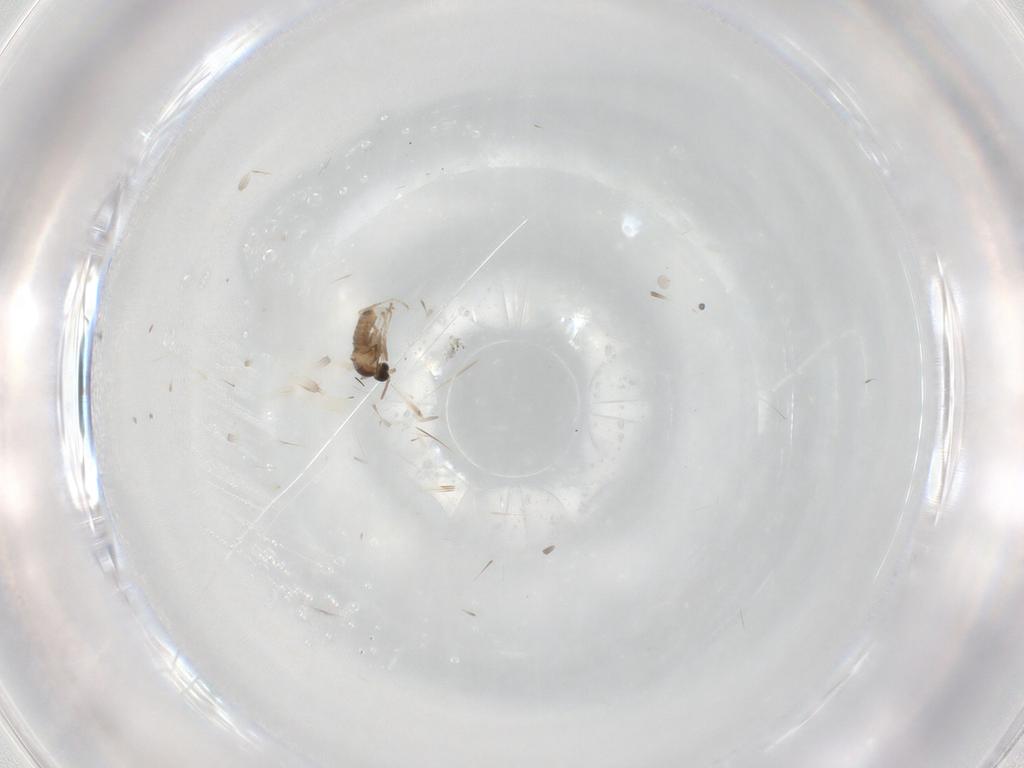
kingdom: Animalia
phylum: Arthropoda
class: Insecta
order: Diptera
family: Cecidomyiidae
